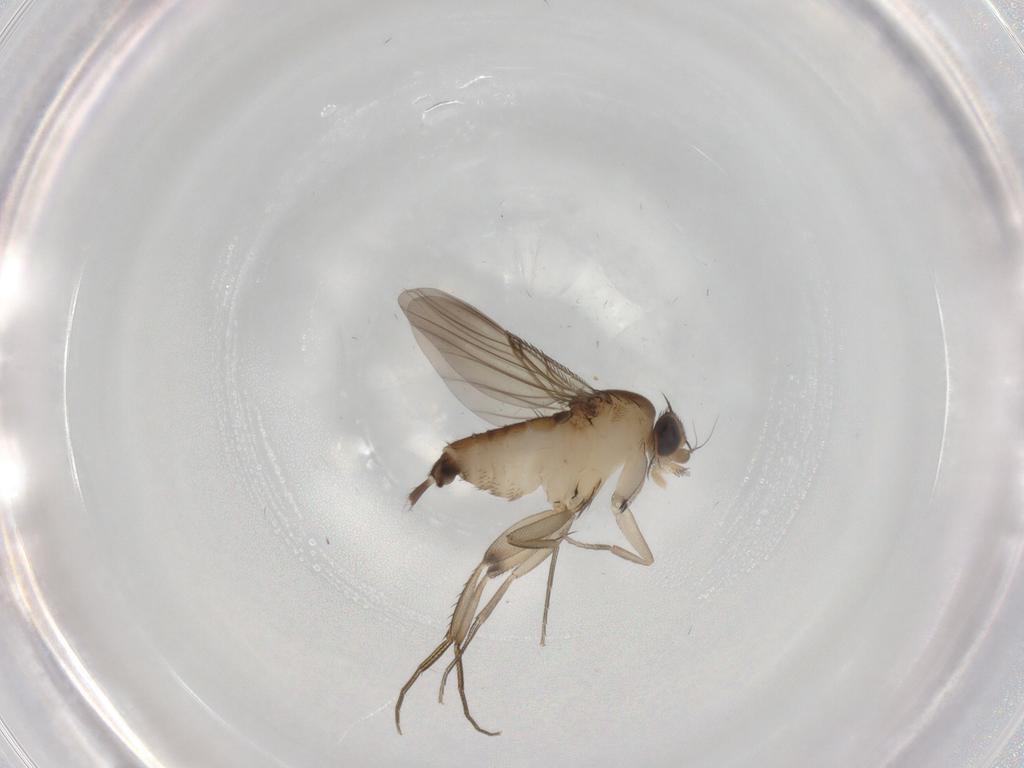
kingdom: Animalia
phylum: Arthropoda
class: Insecta
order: Diptera
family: Phoridae
